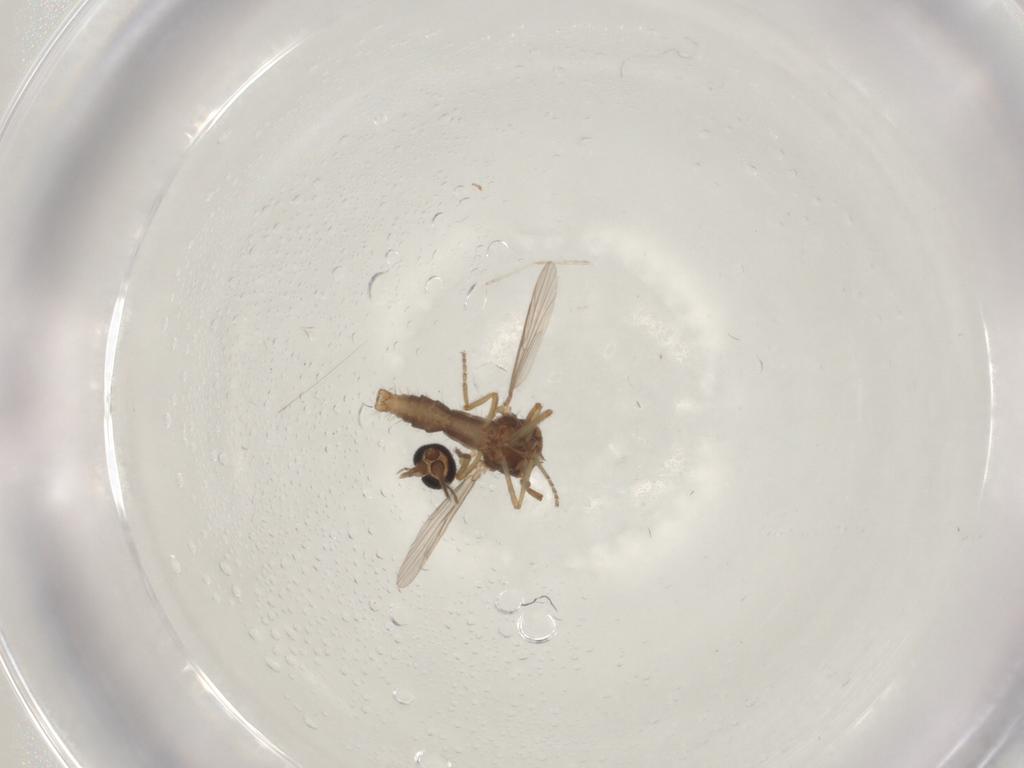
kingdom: Animalia
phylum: Arthropoda
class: Insecta
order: Diptera
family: Ceratopogonidae
